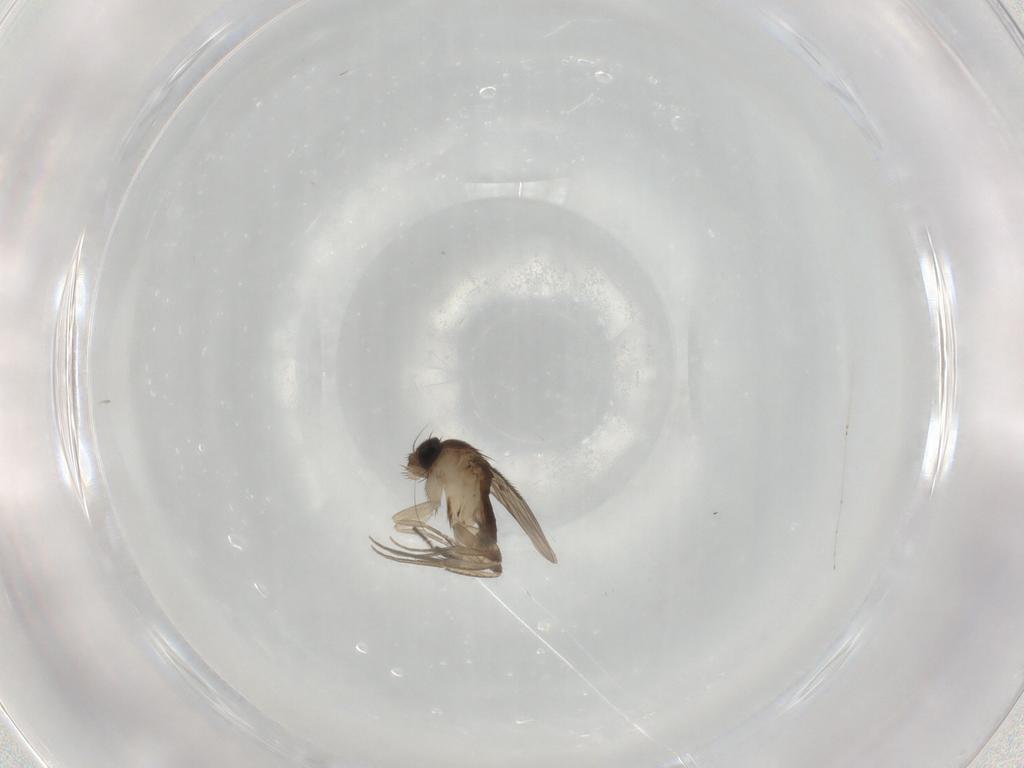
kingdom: Animalia
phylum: Arthropoda
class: Insecta
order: Diptera
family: Phoridae
